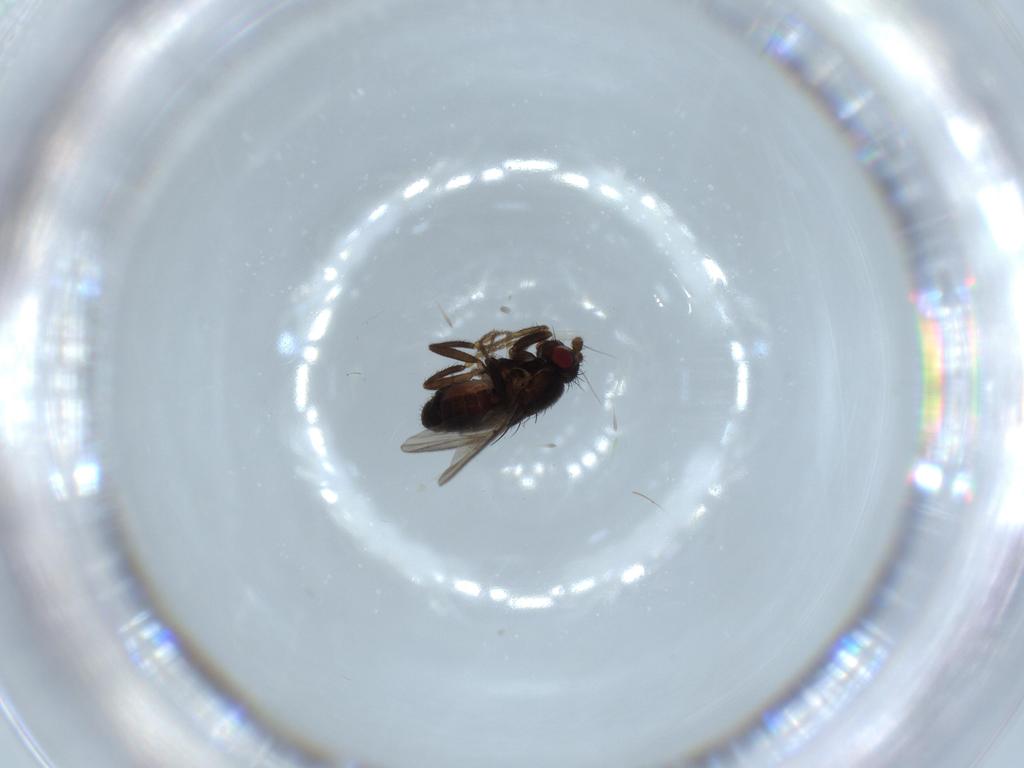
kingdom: Animalia
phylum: Arthropoda
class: Insecta
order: Diptera
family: Sphaeroceridae
